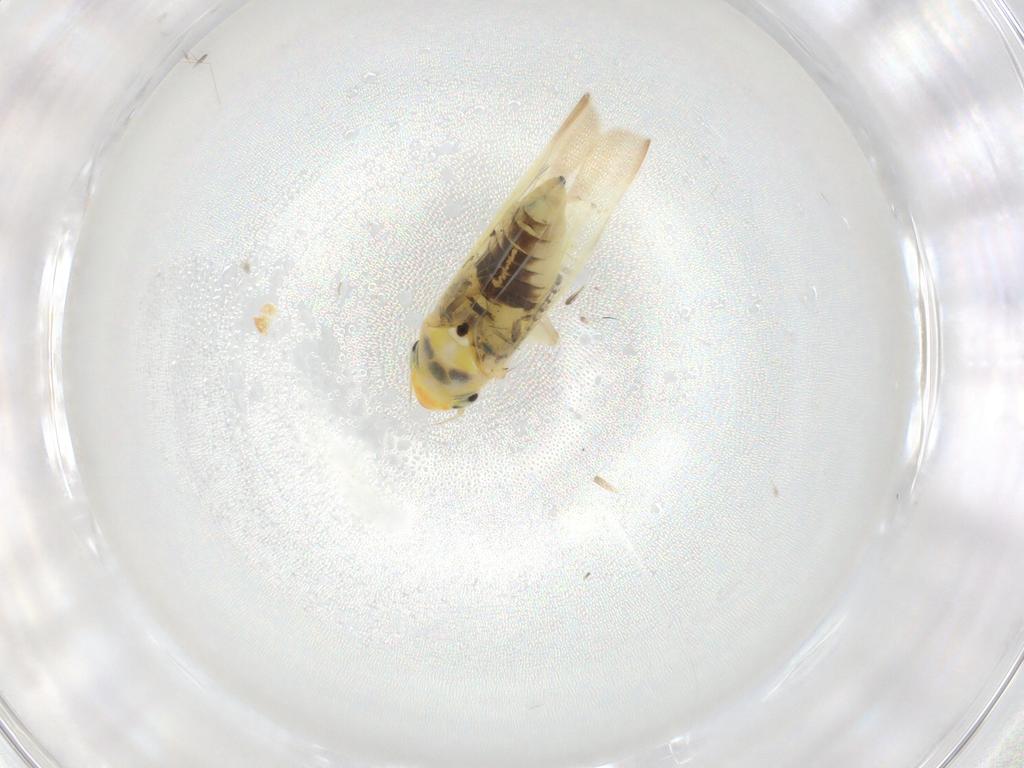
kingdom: Animalia
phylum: Arthropoda
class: Insecta
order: Hemiptera
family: Cicadellidae
